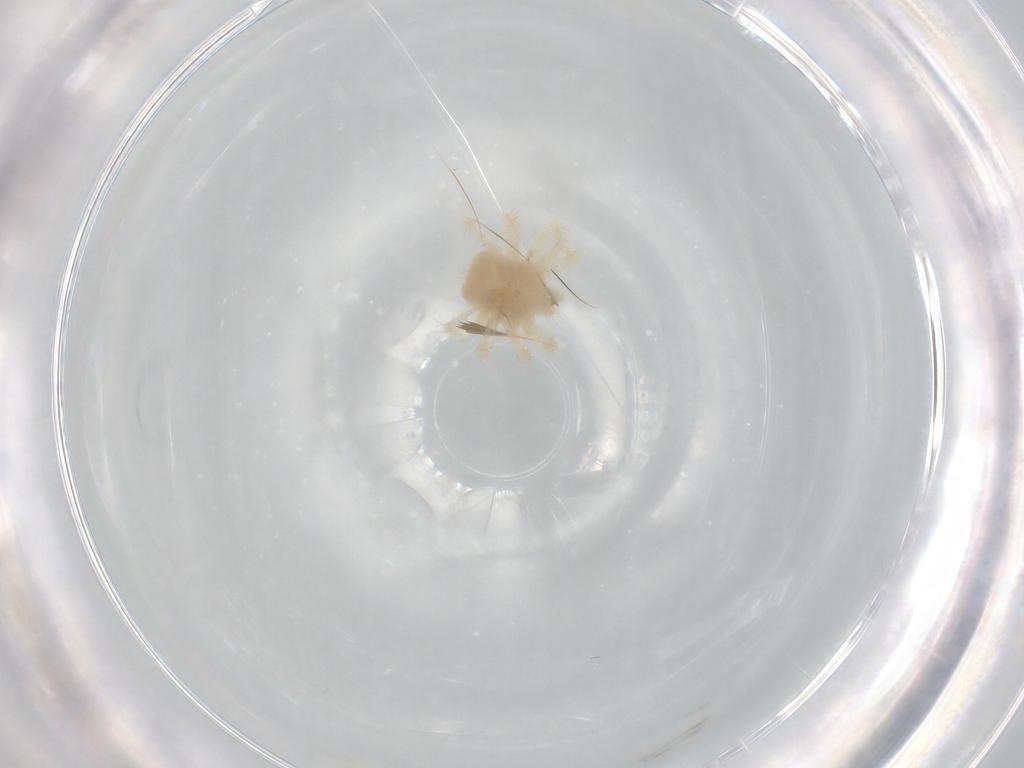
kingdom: Animalia
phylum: Arthropoda
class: Arachnida
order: Trombidiformes
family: Anystidae
